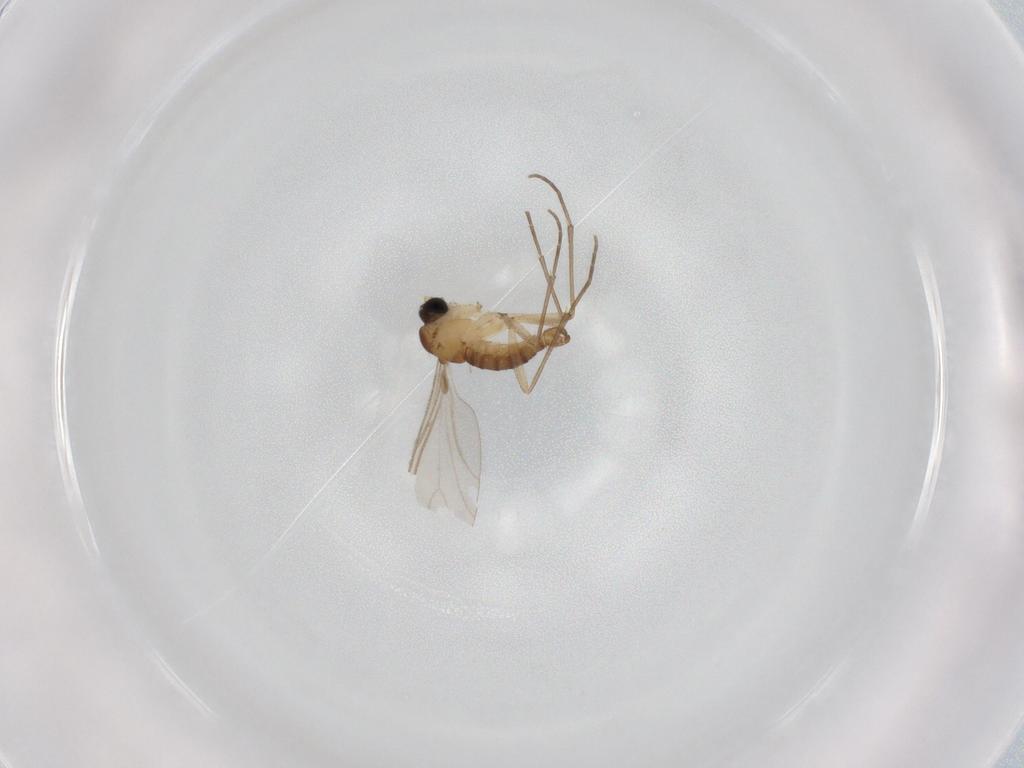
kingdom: Animalia
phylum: Arthropoda
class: Insecta
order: Diptera
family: Sciaridae
